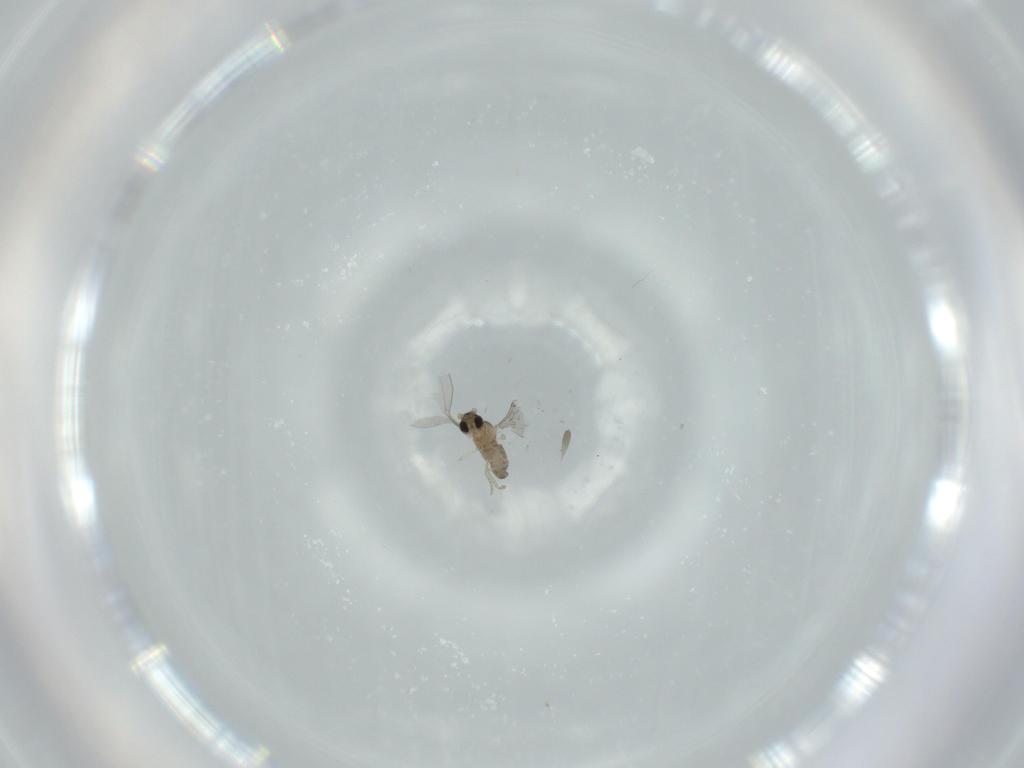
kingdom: Animalia
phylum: Arthropoda
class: Insecta
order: Diptera
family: Cecidomyiidae
